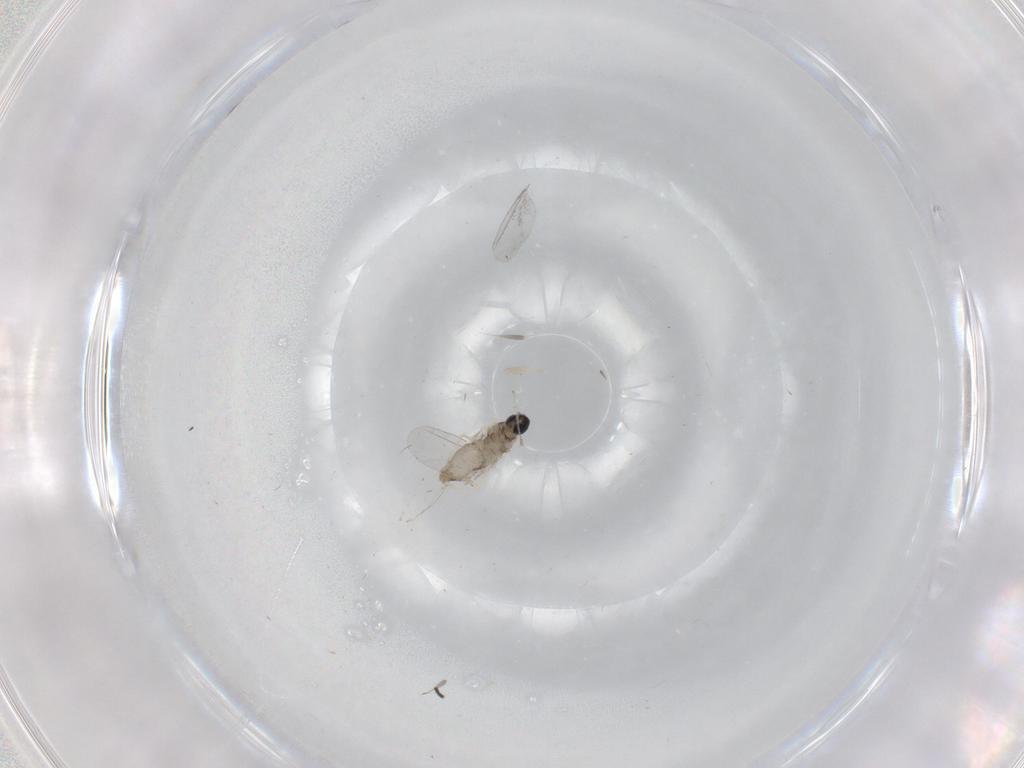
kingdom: Animalia
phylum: Arthropoda
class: Insecta
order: Diptera
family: Cecidomyiidae
